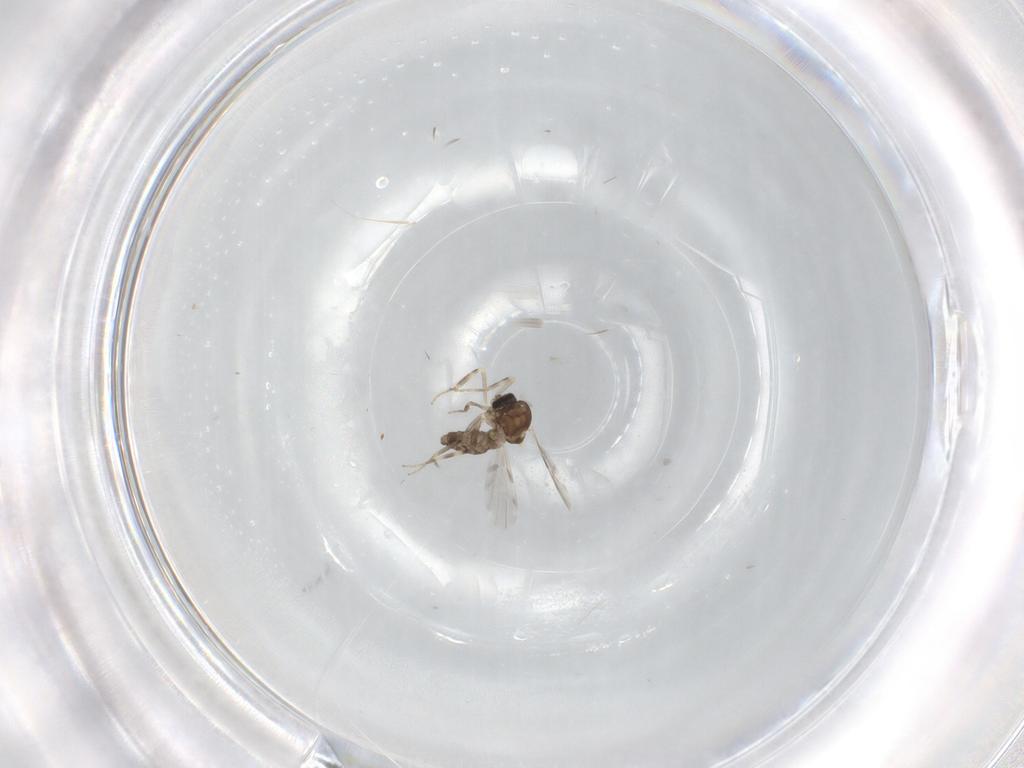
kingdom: Animalia
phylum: Arthropoda
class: Insecta
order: Diptera
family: Ceratopogonidae
